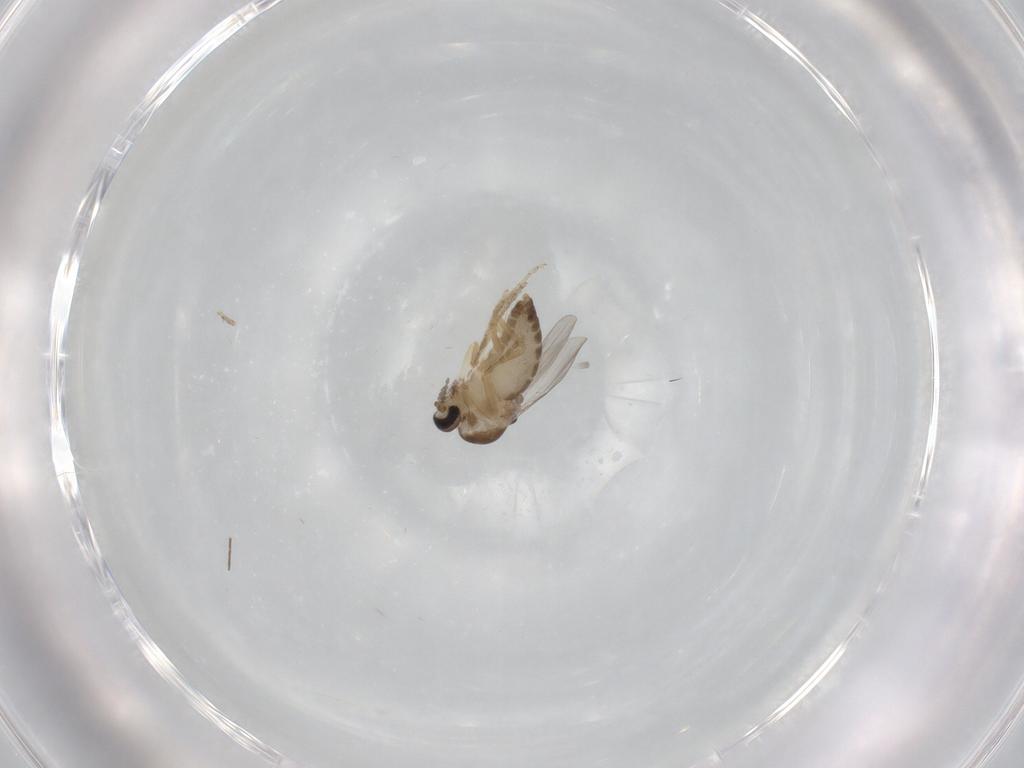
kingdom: Animalia
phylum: Arthropoda
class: Insecta
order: Diptera
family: Ceratopogonidae
